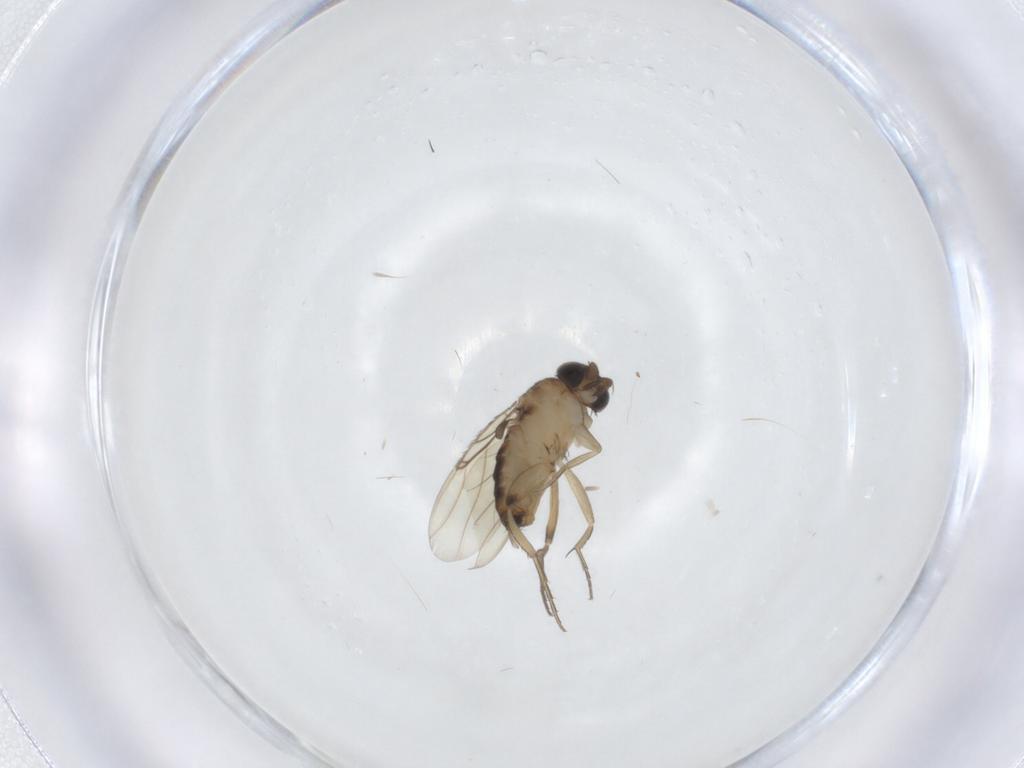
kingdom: Animalia
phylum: Arthropoda
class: Insecta
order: Diptera
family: Phoridae
